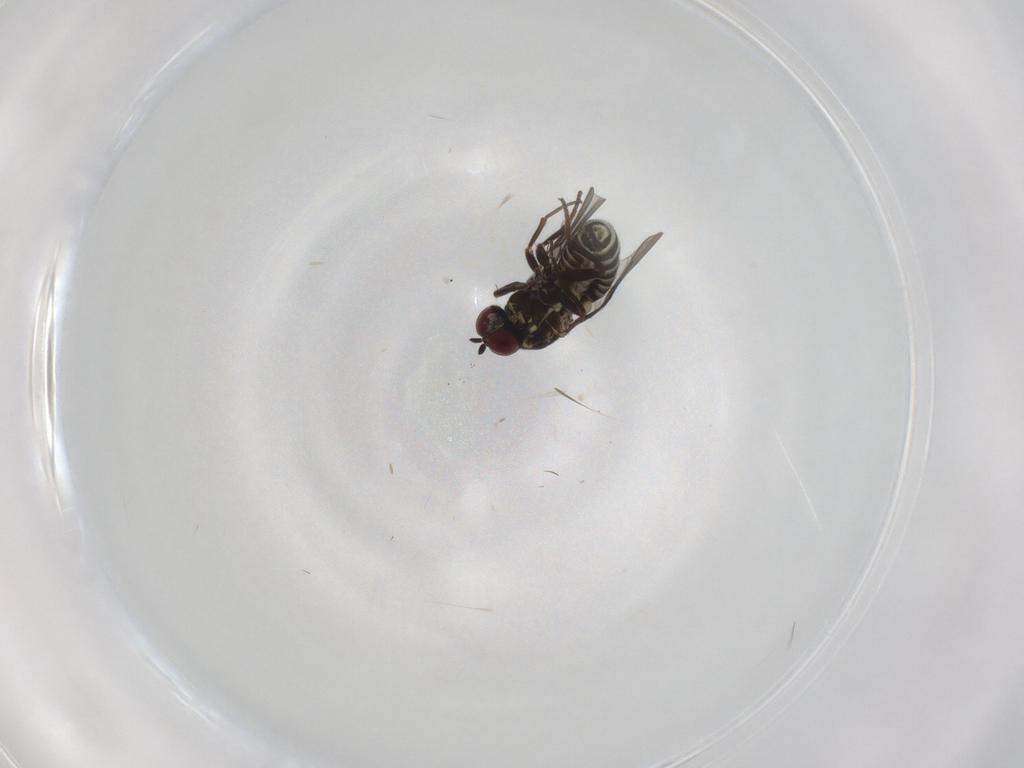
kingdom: Animalia
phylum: Arthropoda
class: Insecta
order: Diptera
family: Mythicomyiidae
